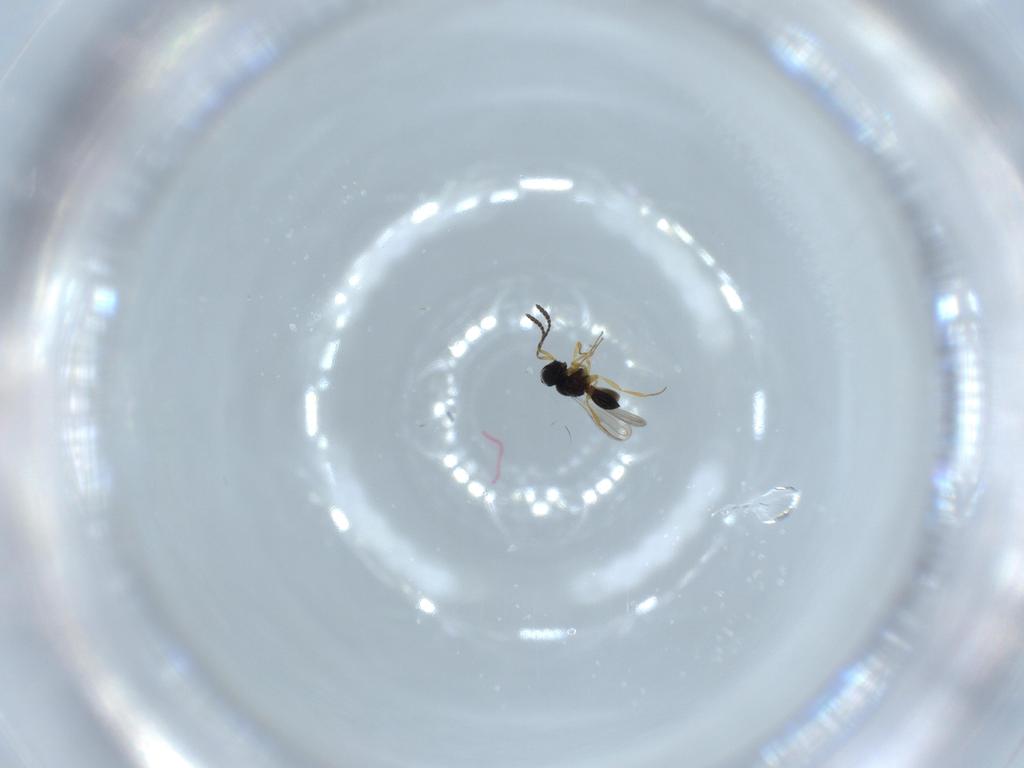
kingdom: Animalia
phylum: Arthropoda
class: Insecta
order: Hymenoptera
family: Scelionidae
